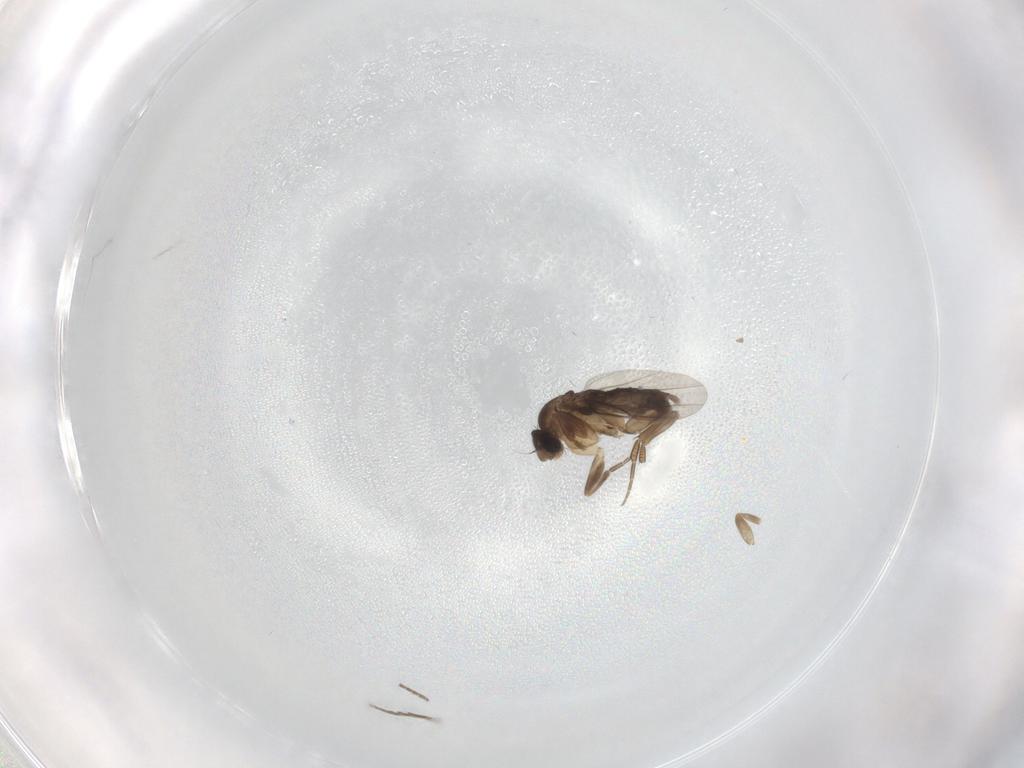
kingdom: Animalia
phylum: Arthropoda
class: Insecta
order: Diptera
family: Phoridae
